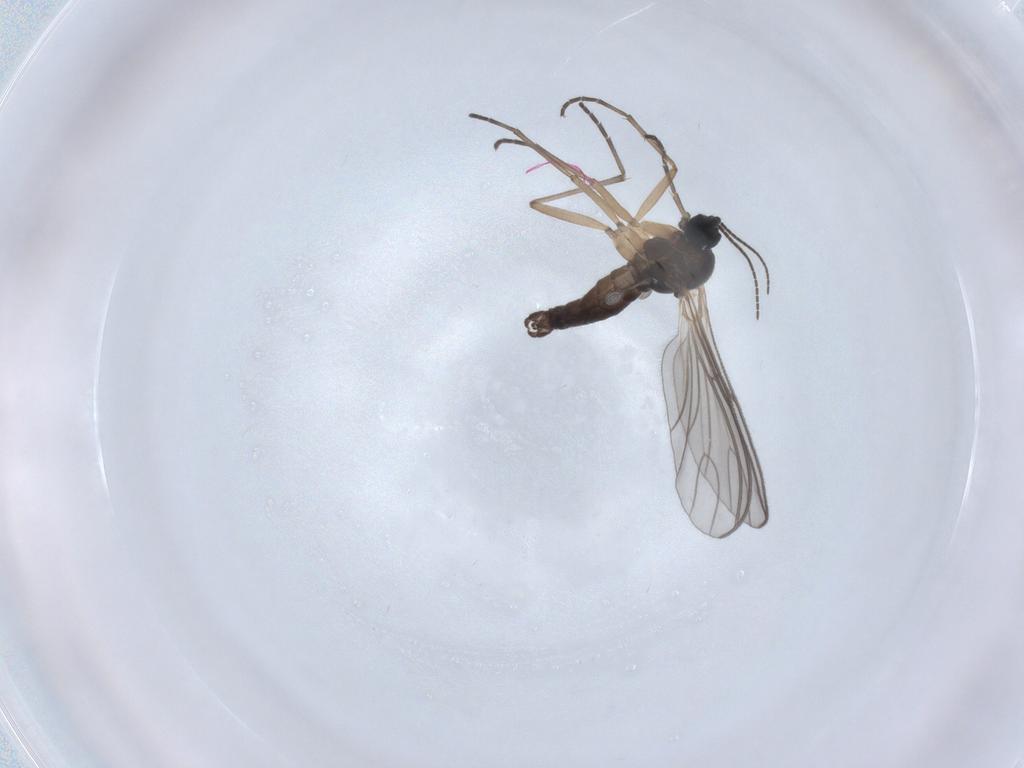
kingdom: Animalia
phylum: Arthropoda
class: Insecta
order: Diptera
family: Sciaridae
